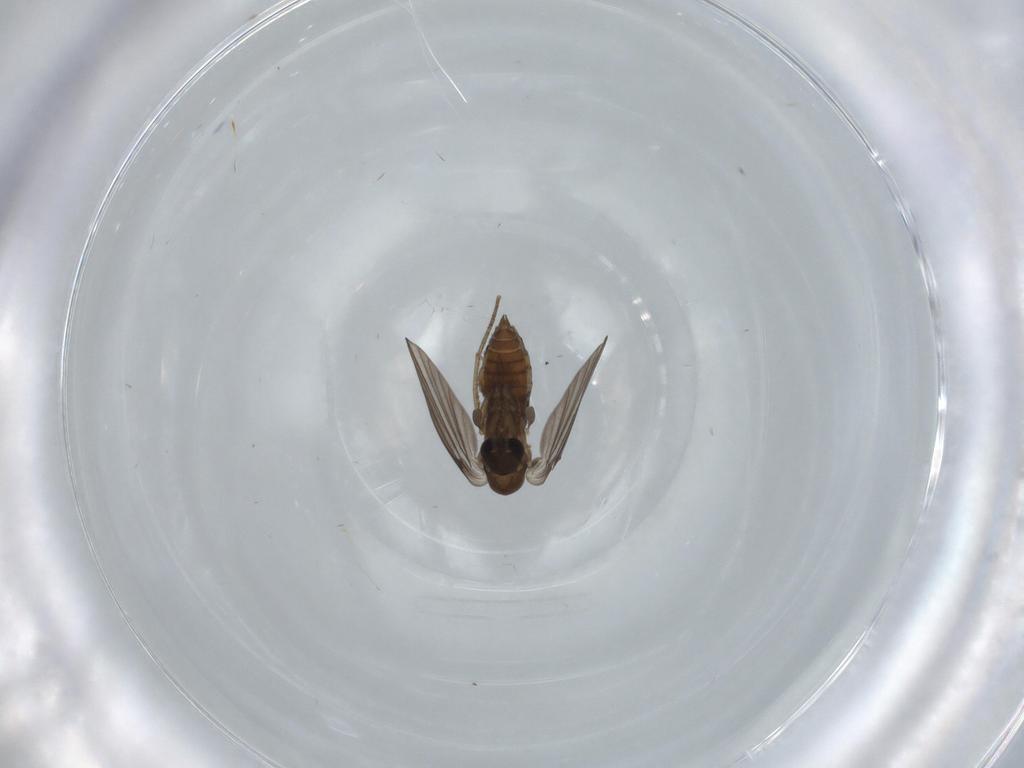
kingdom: Animalia
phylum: Arthropoda
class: Insecta
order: Diptera
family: Psychodidae
